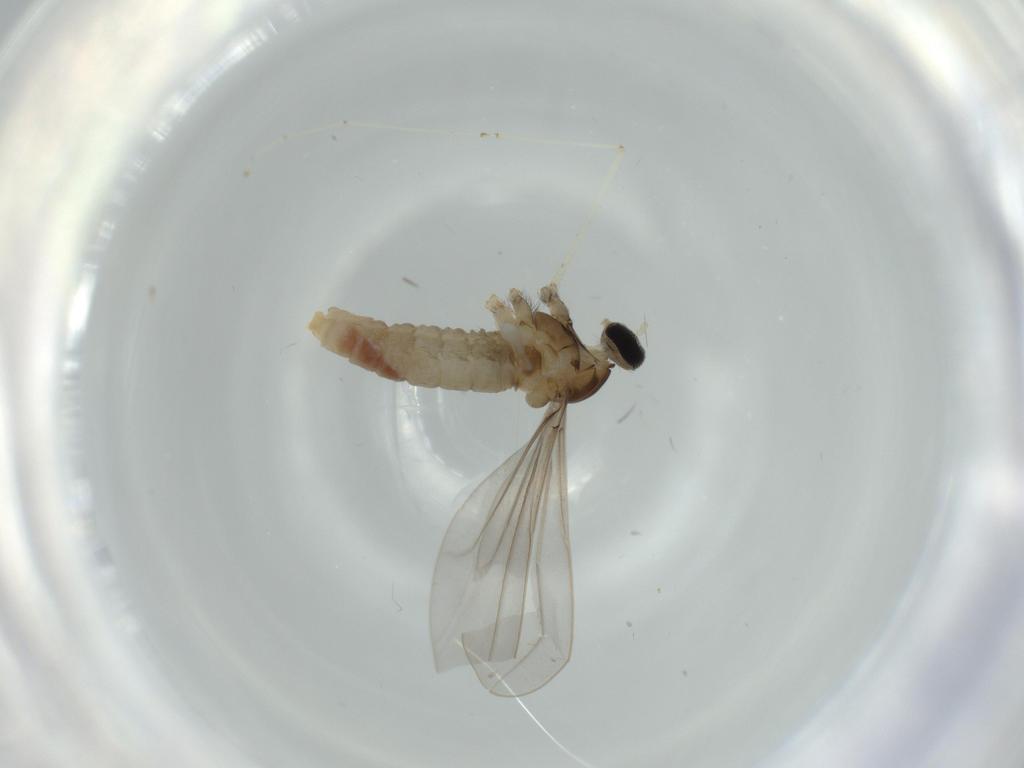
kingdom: Animalia
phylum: Arthropoda
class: Insecta
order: Diptera
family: Cecidomyiidae
